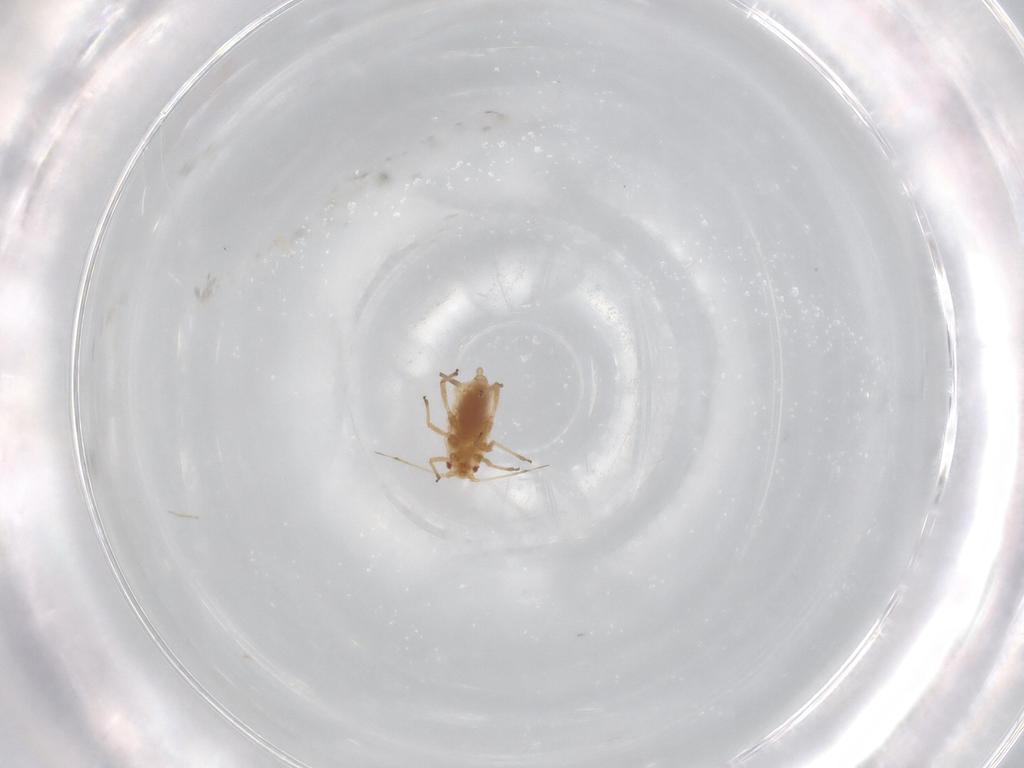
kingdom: Animalia
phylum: Arthropoda
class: Insecta
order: Hemiptera
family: Aphididae
